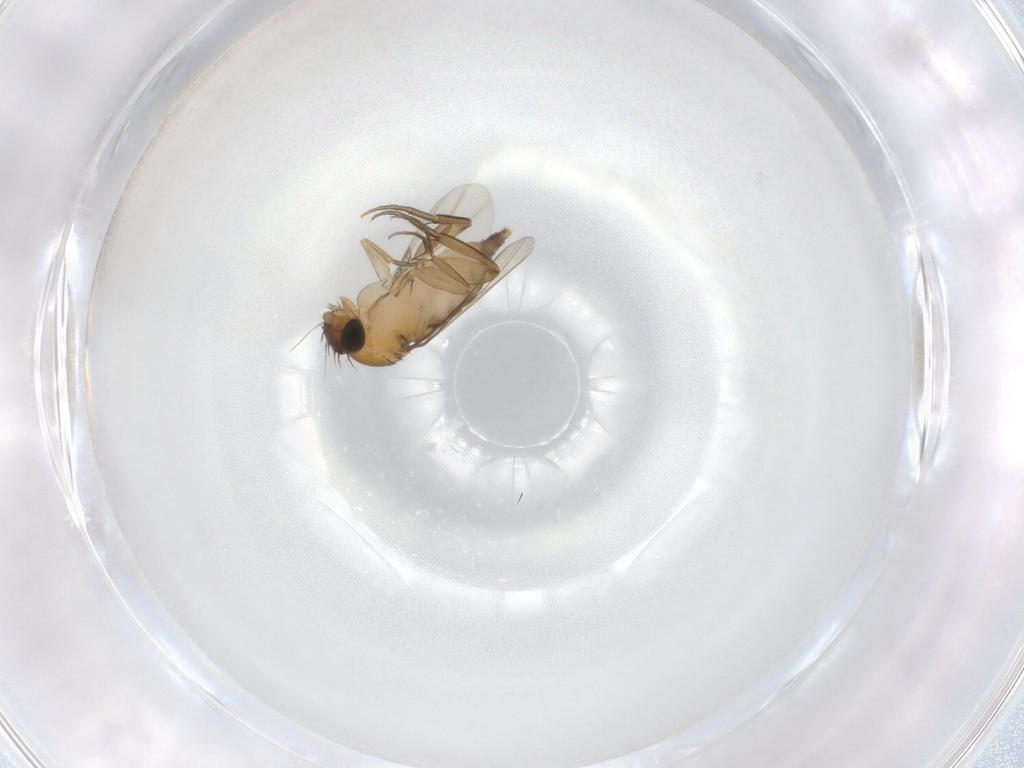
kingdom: Animalia
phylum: Arthropoda
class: Insecta
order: Diptera
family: Phoridae
